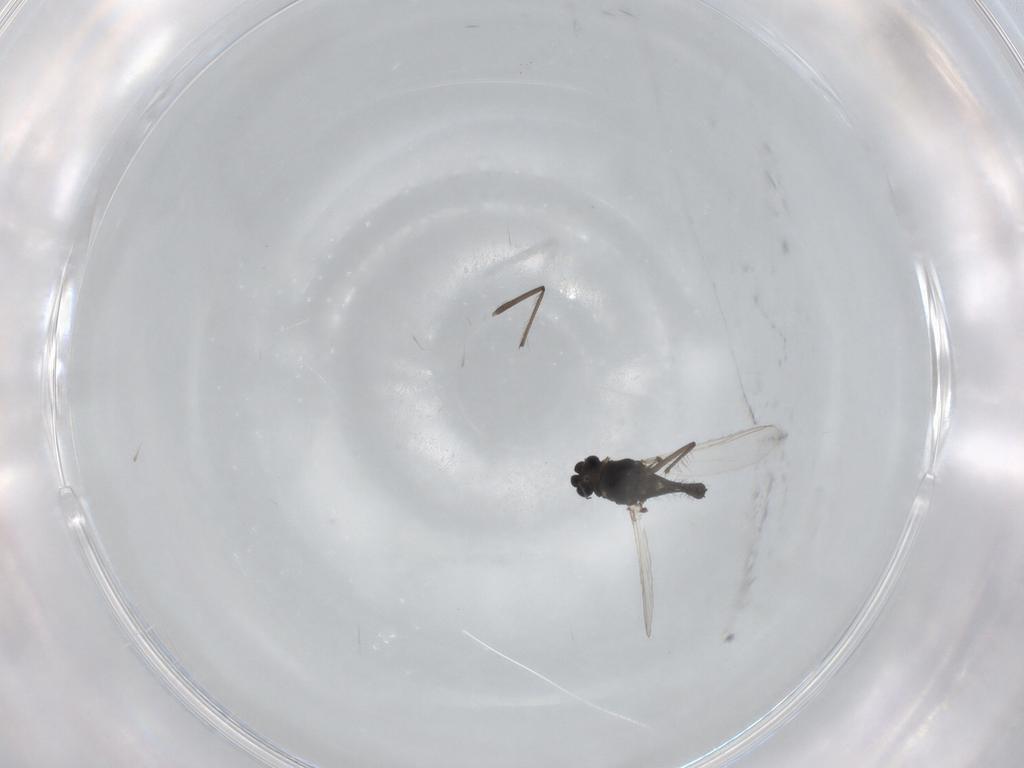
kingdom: Animalia
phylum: Arthropoda
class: Insecta
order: Diptera
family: Chironomidae
